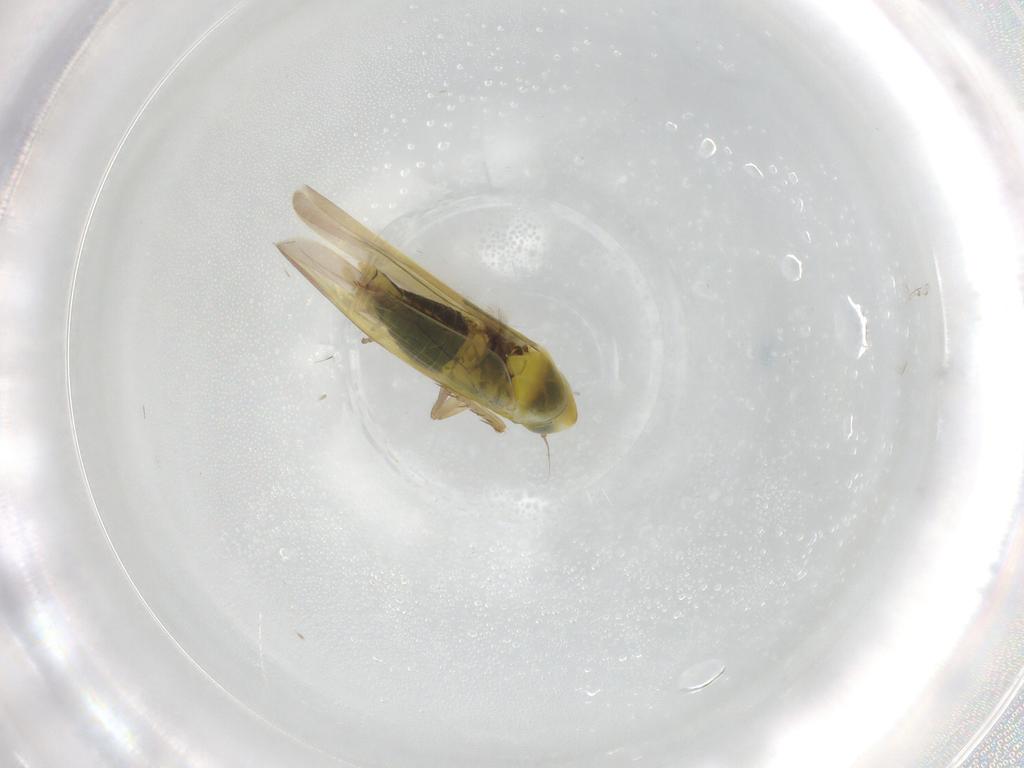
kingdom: Animalia
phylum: Arthropoda
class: Insecta
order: Hemiptera
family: Cicadellidae
